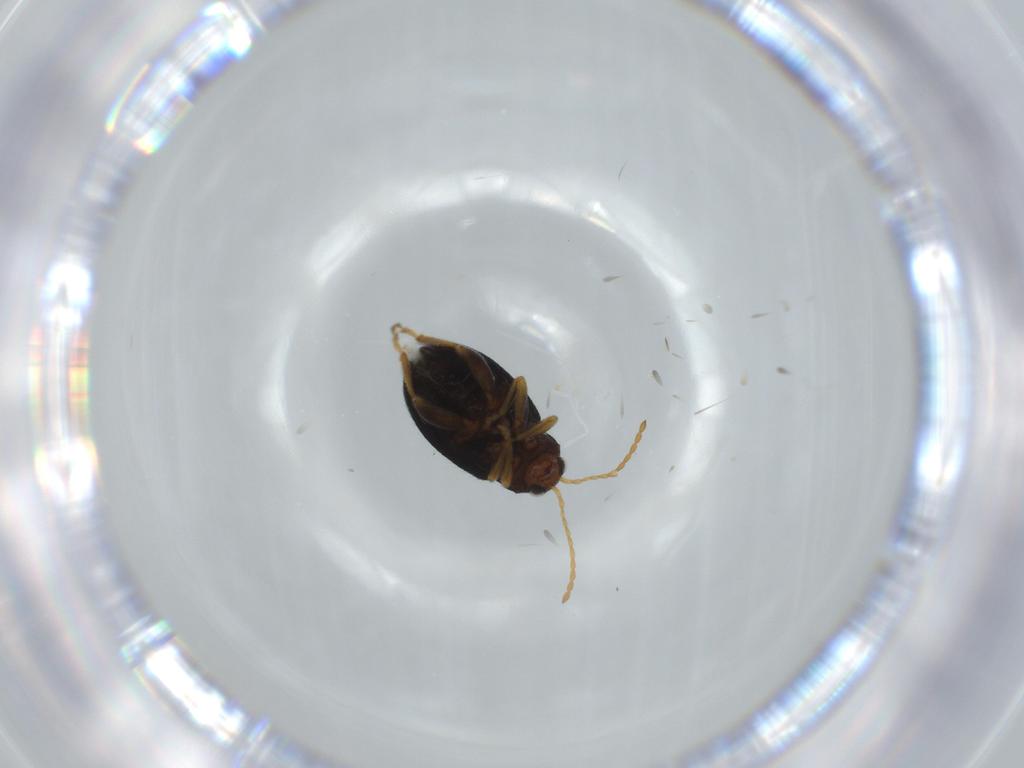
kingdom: Animalia
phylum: Arthropoda
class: Insecta
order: Coleoptera
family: Chrysomelidae
